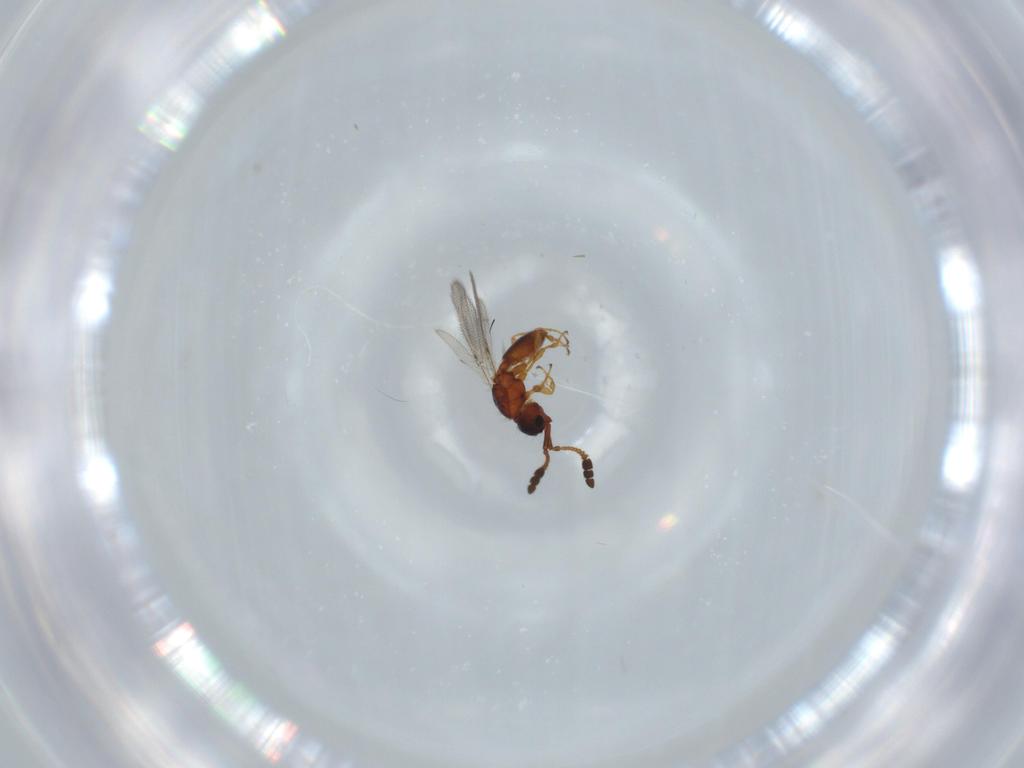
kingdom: Animalia
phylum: Arthropoda
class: Insecta
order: Hymenoptera
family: Diapriidae
